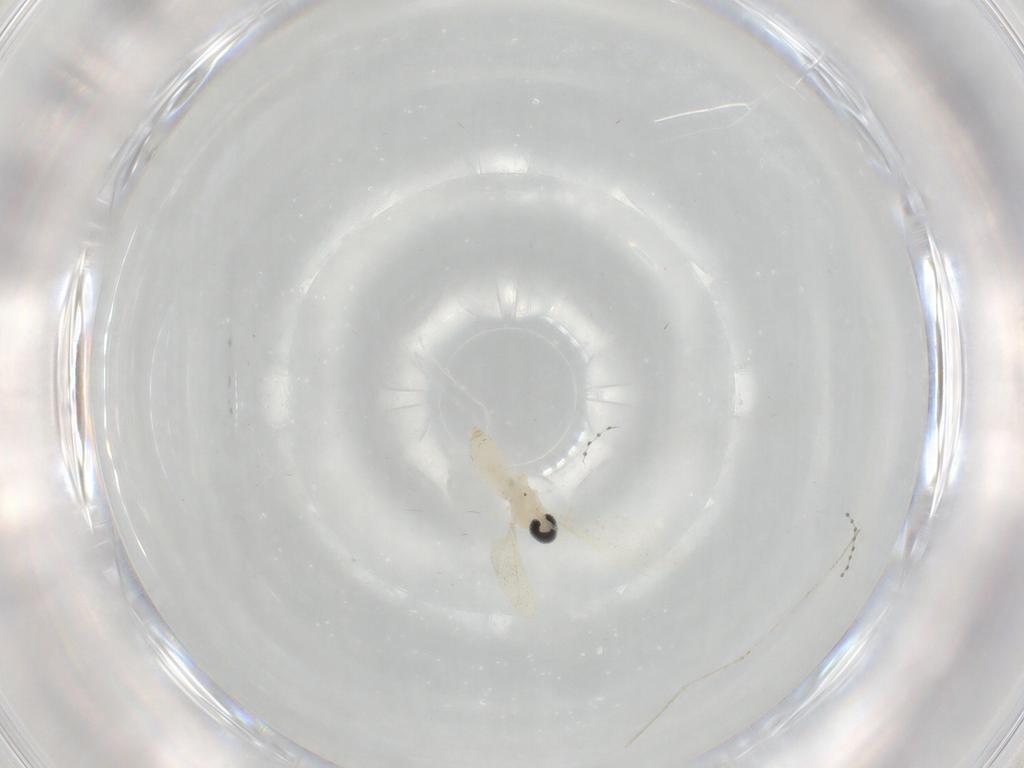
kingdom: Animalia
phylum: Arthropoda
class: Insecta
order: Diptera
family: Cecidomyiidae
